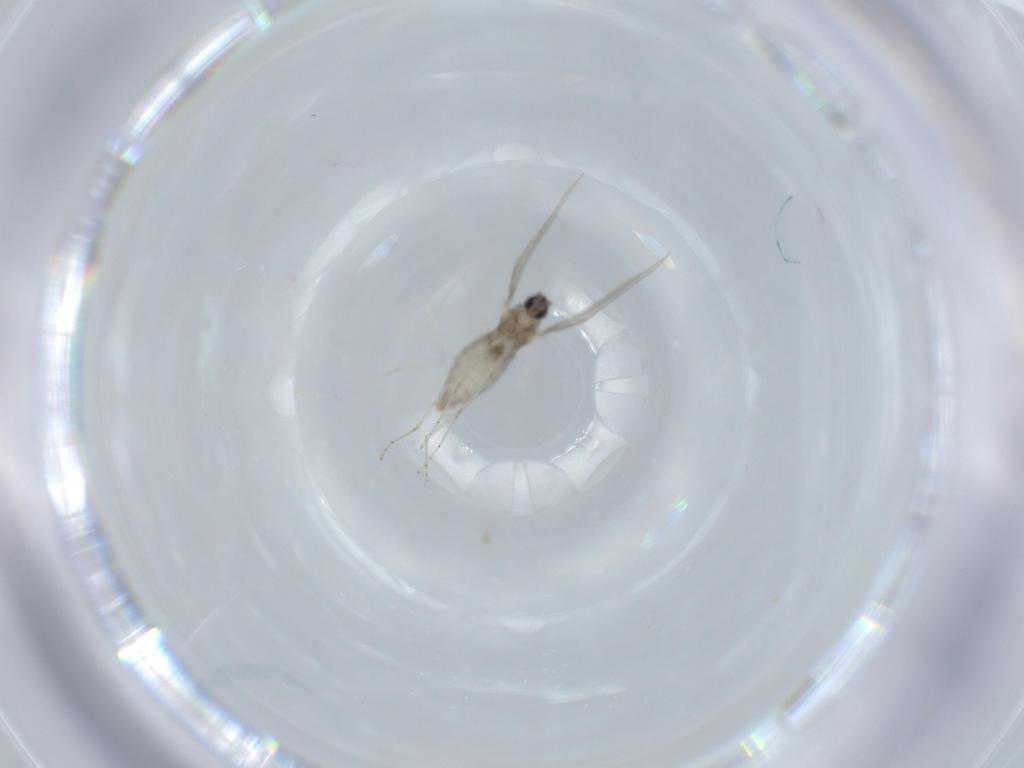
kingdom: Animalia
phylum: Arthropoda
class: Insecta
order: Diptera
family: Cecidomyiidae
